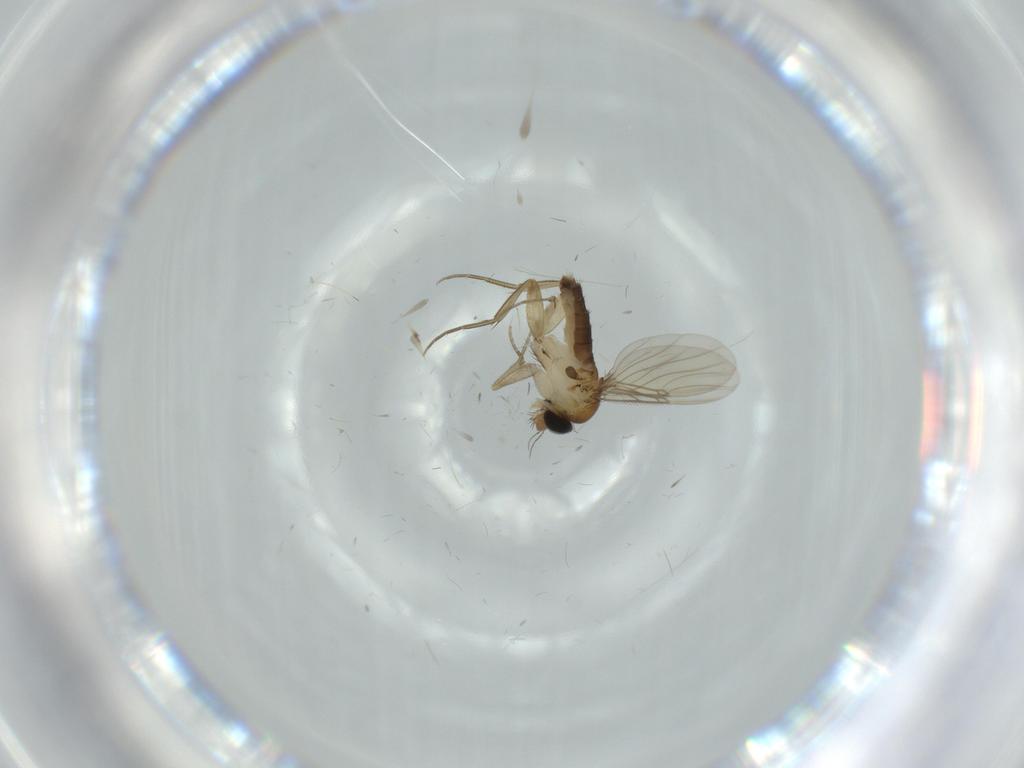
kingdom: Animalia
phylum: Arthropoda
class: Insecta
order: Diptera
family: Phoridae
